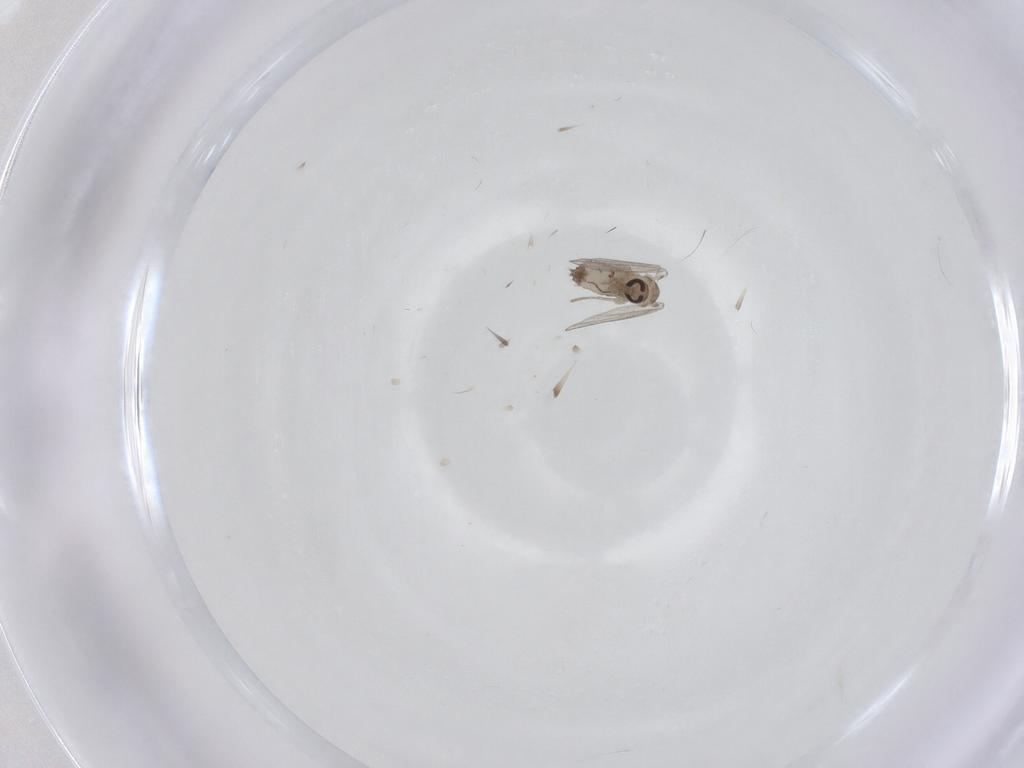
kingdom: Animalia
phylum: Arthropoda
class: Insecta
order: Diptera
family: Psychodidae
